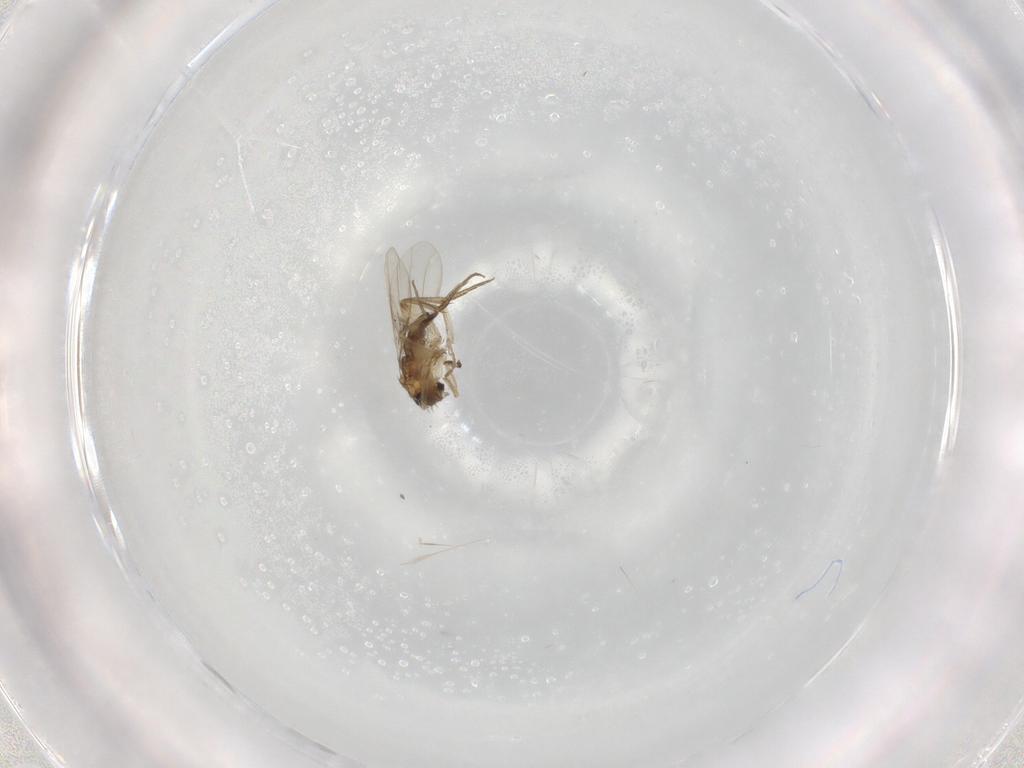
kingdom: Animalia
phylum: Arthropoda
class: Insecta
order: Diptera
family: Phoridae
